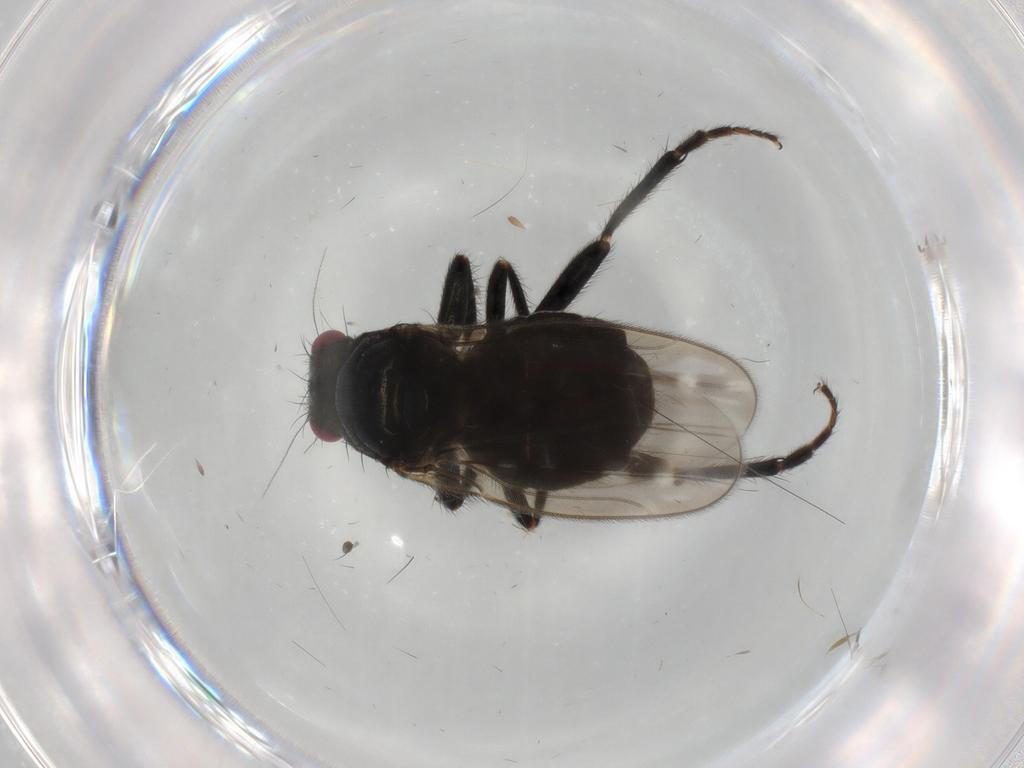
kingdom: Animalia
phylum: Arthropoda
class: Insecta
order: Diptera
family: Sphaeroceridae
